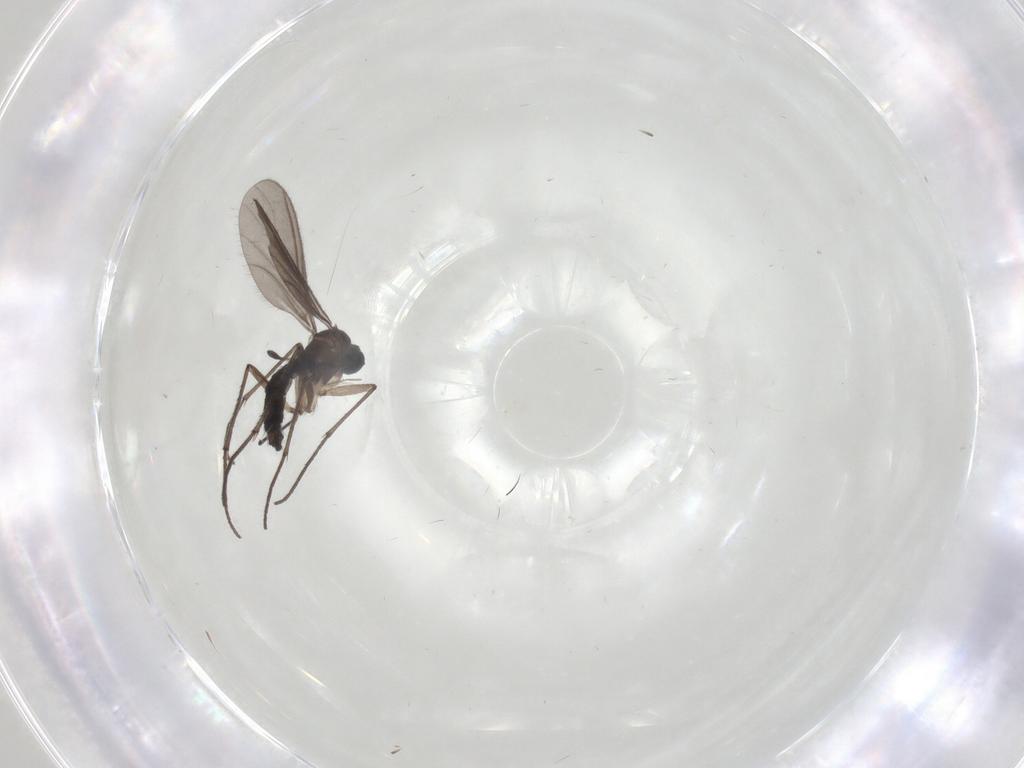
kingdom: Animalia
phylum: Arthropoda
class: Insecta
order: Diptera
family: Sciaridae
